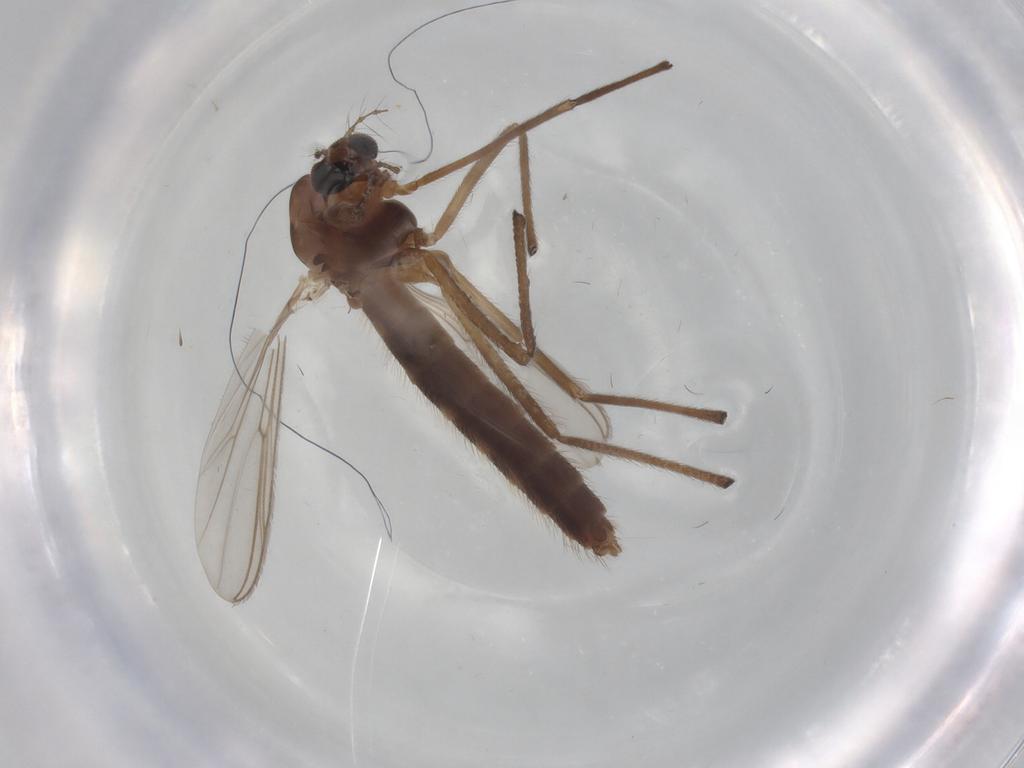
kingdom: Animalia
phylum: Arthropoda
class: Insecta
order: Diptera
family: Chironomidae
